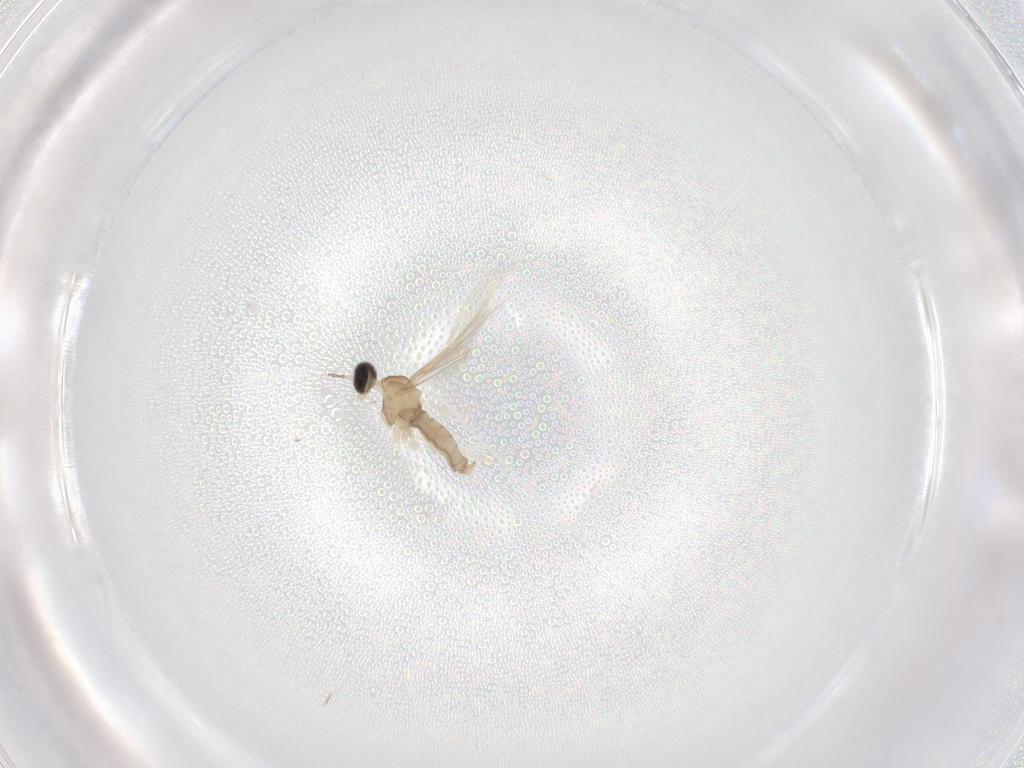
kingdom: Animalia
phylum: Arthropoda
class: Insecta
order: Diptera
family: Cecidomyiidae
